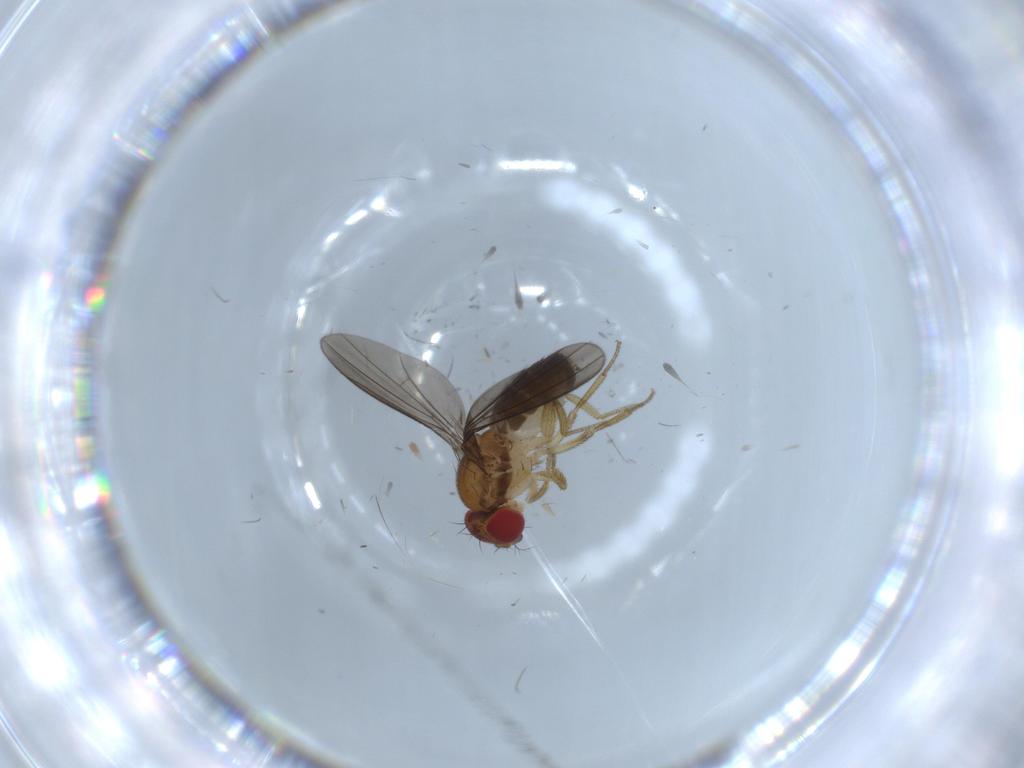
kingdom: Animalia
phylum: Arthropoda
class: Insecta
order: Diptera
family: Drosophilidae
